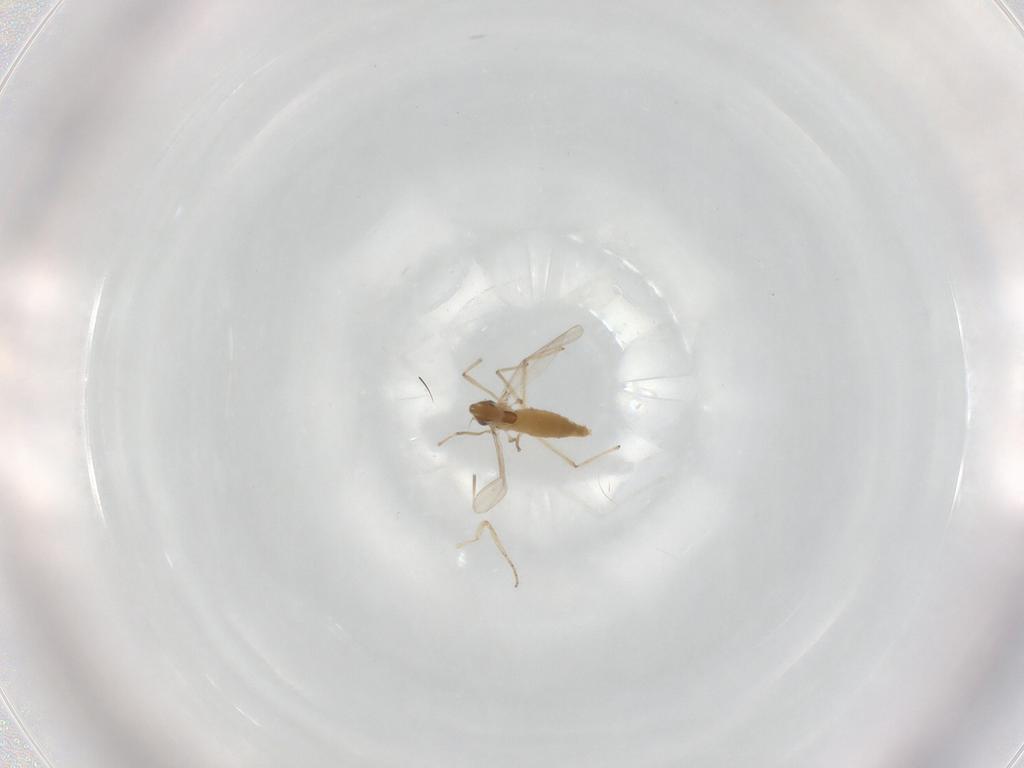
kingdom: Animalia
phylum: Arthropoda
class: Insecta
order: Diptera
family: Chironomidae
